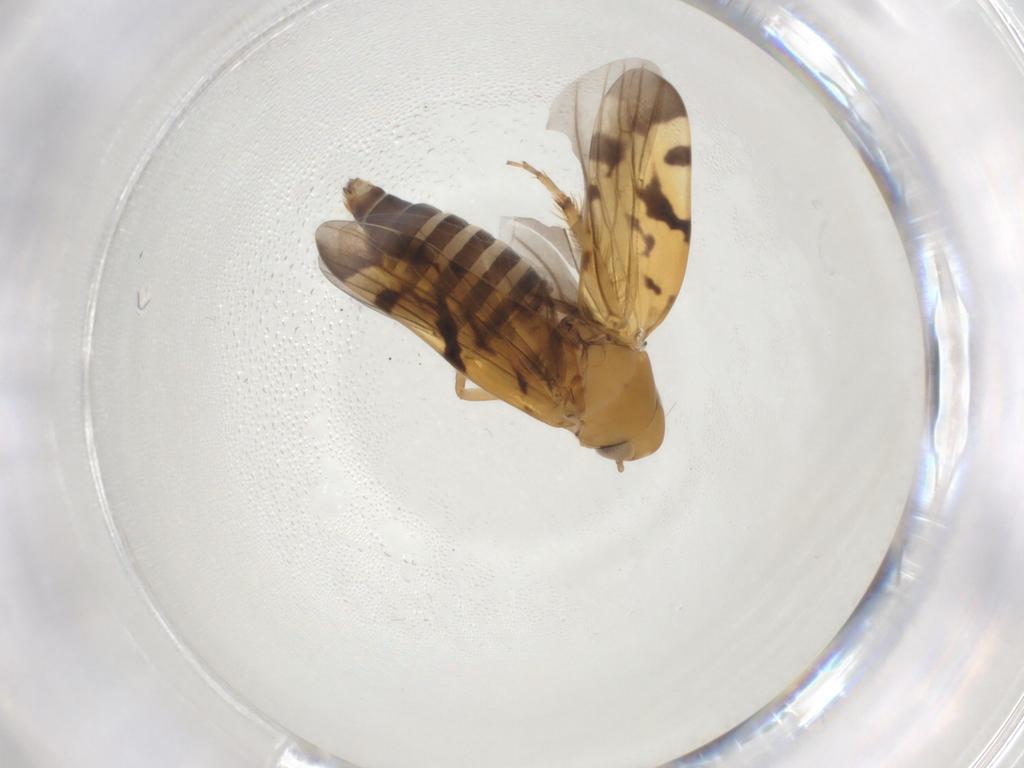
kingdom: Animalia
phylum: Arthropoda
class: Insecta
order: Hemiptera
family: Cicadellidae
